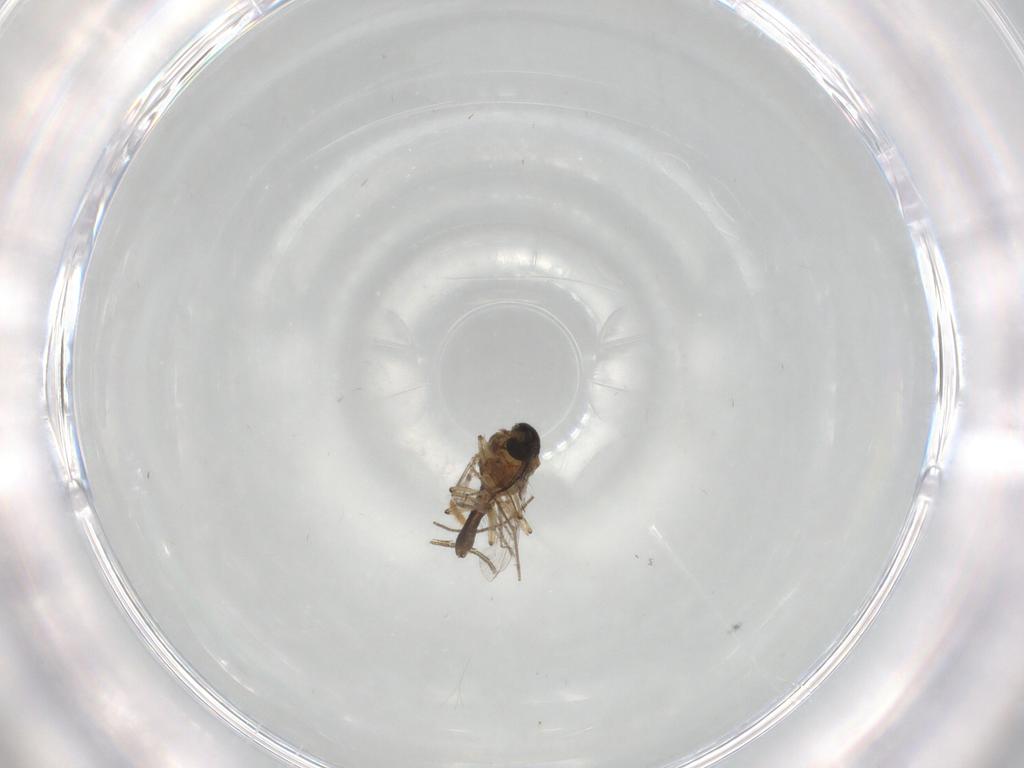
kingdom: Animalia
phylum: Arthropoda
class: Insecta
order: Diptera
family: Ceratopogonidae
